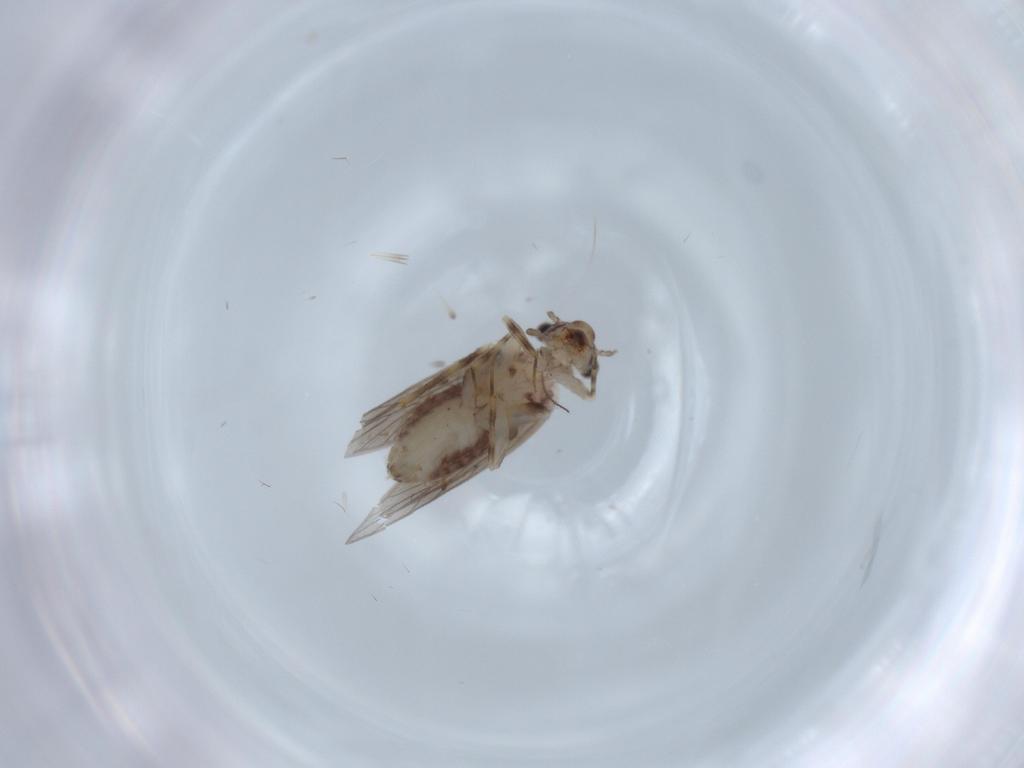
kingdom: Animalia
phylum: Arthropoda
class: Insecta
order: Psocodea
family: Lepidopsocidae
